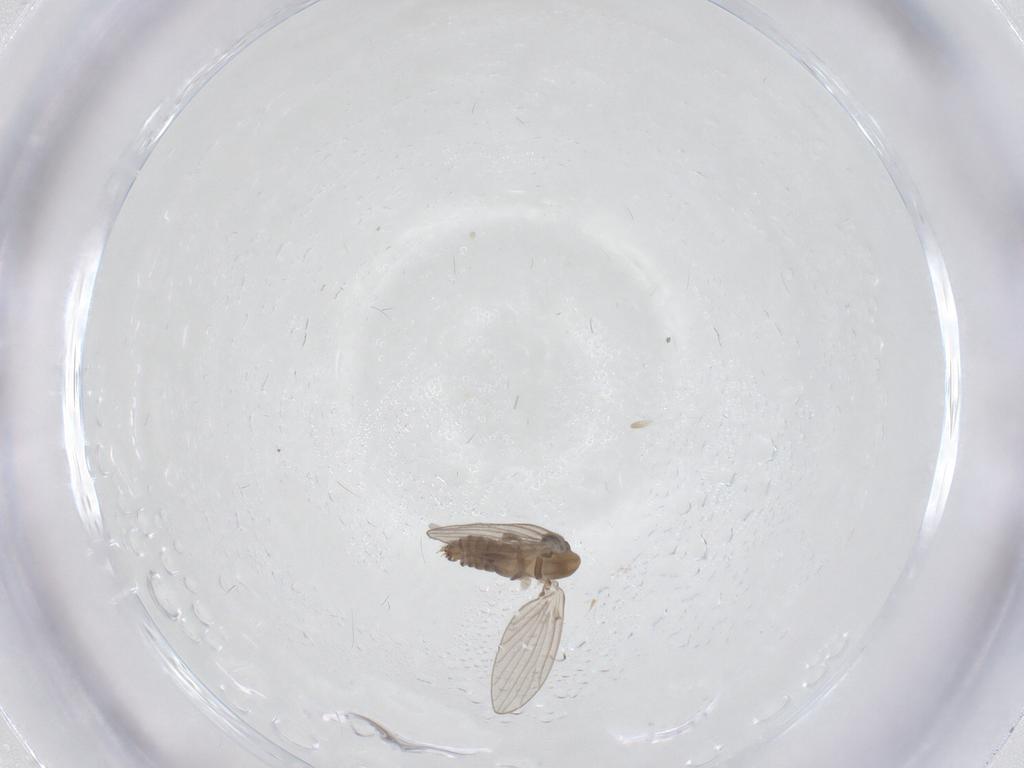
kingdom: Animalia
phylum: Arthropoda
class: Insecta
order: Diptera
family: Psychodidae
